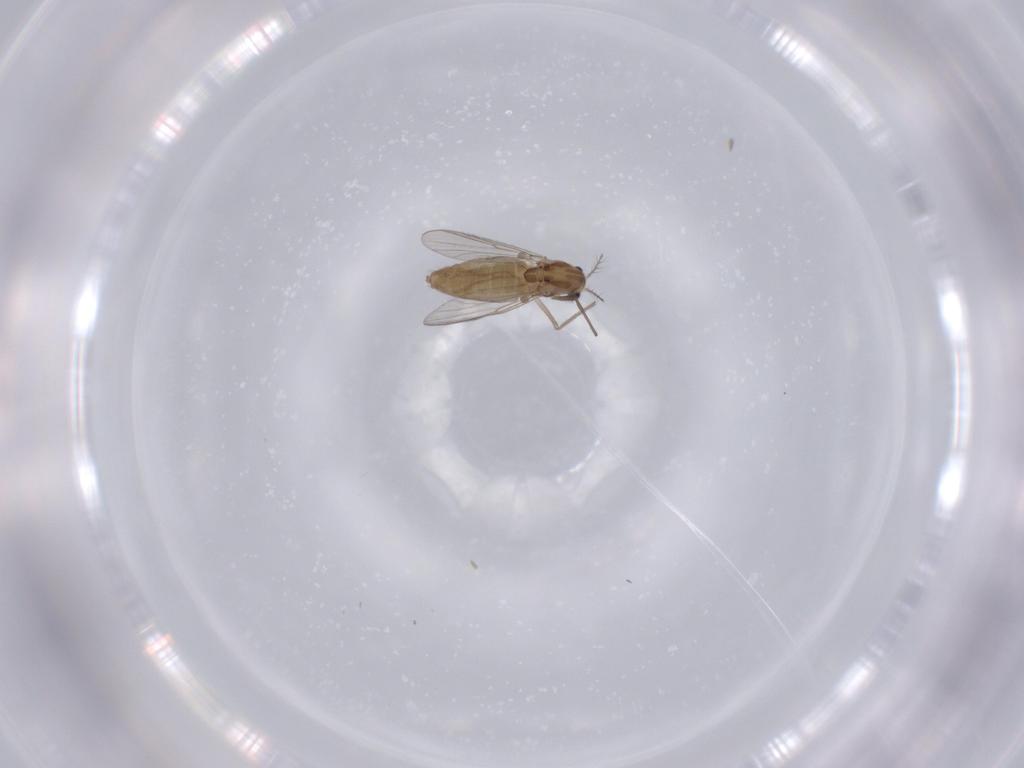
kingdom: Animalia
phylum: Arthropoda
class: Insecta
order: Diptera
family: Chironomidae
